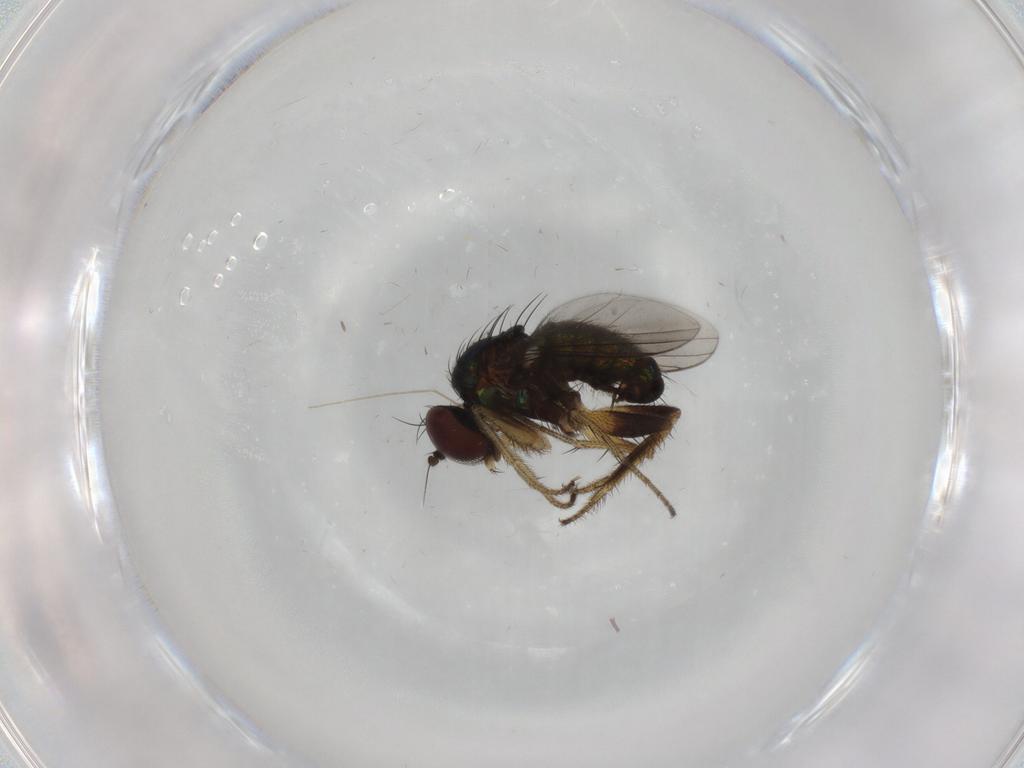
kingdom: Animalia
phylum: Arthropoda
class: Insecta
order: Diptera
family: Dolichopodidae
